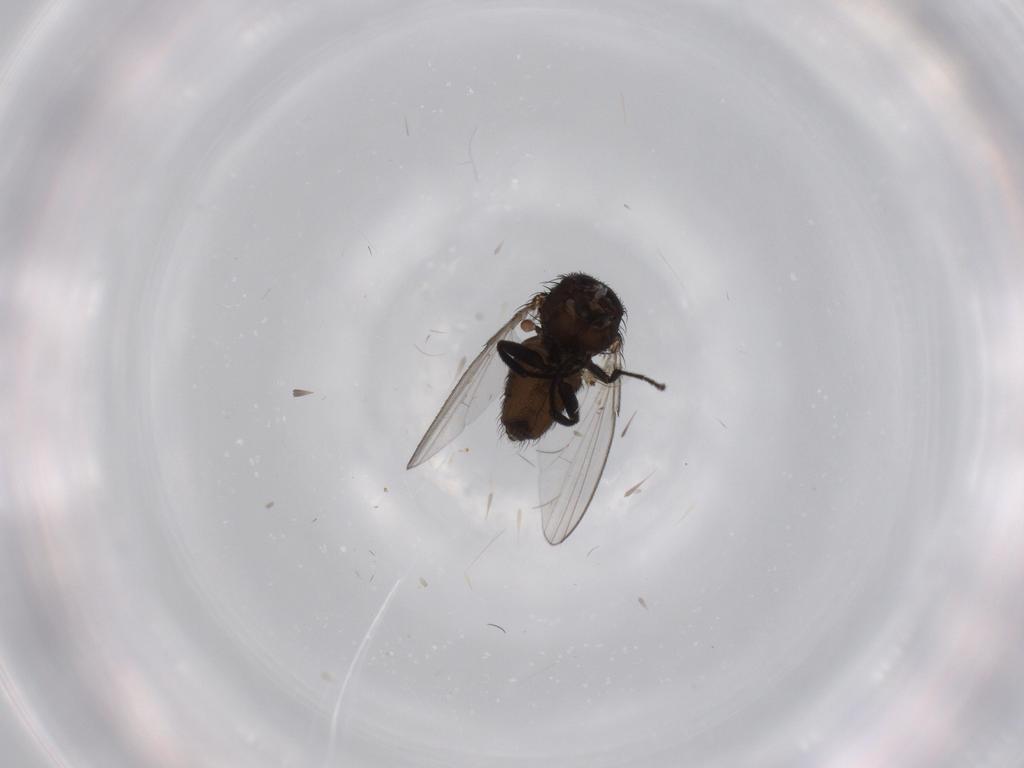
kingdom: Animalia
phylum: Arthropoda
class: Insecta
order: Diptera
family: Milichiidae
